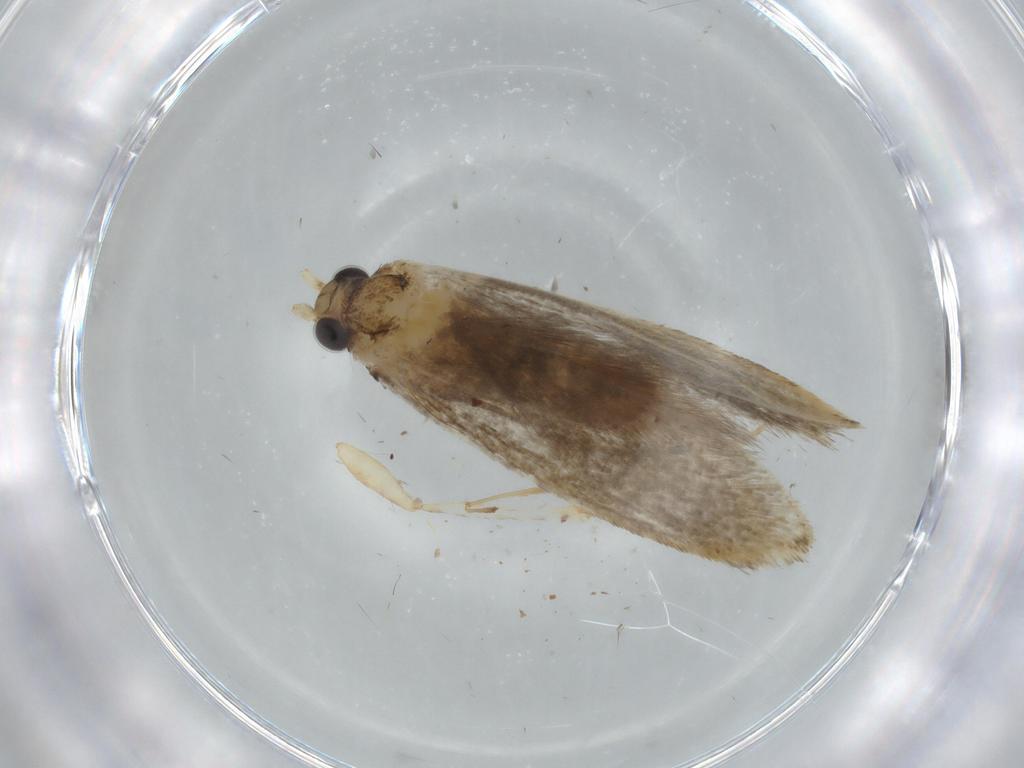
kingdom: Animalia
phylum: Arthropoda
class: Insecta
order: Lepidoptera
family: Tineidae
